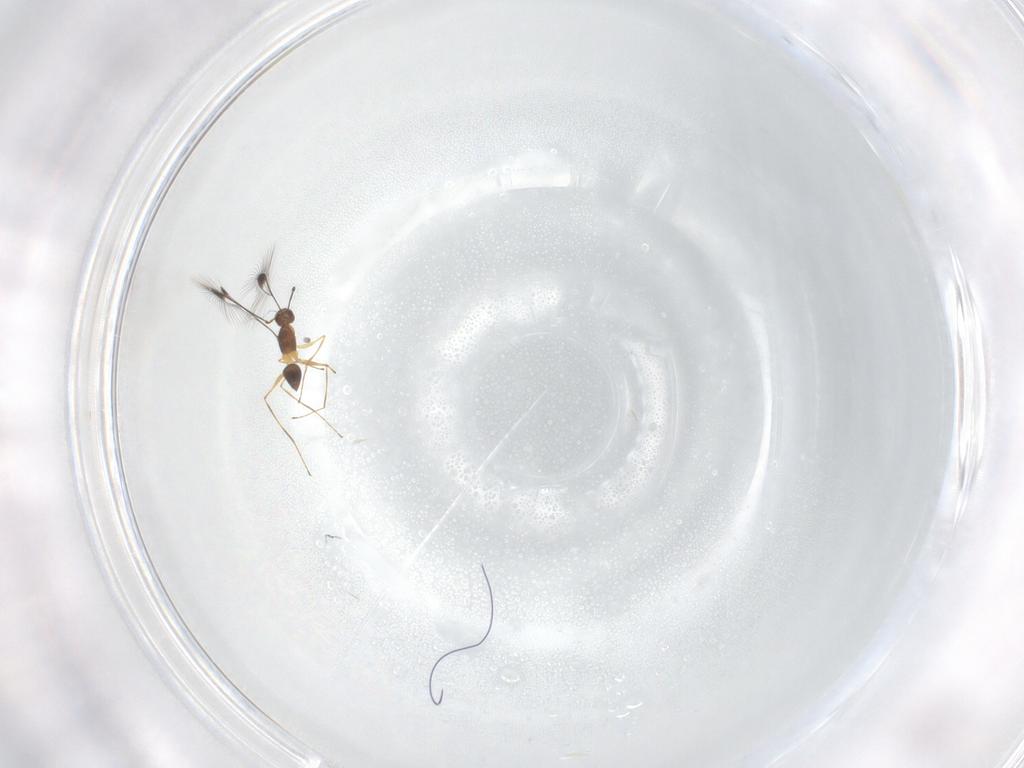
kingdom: Animalia
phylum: Arthropoda
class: Insecta
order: Hymenoptera
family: Mymaridae
